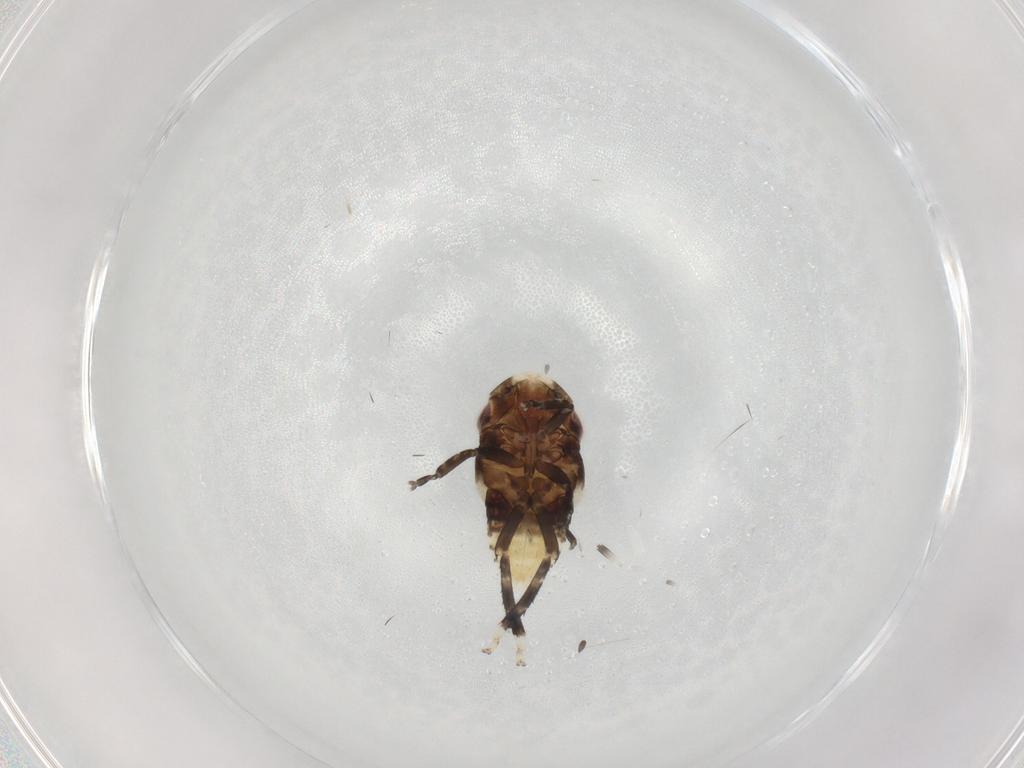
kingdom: Animalia
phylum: Arthropoda
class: Insecta
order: Hemiptera
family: Cicadellidae
